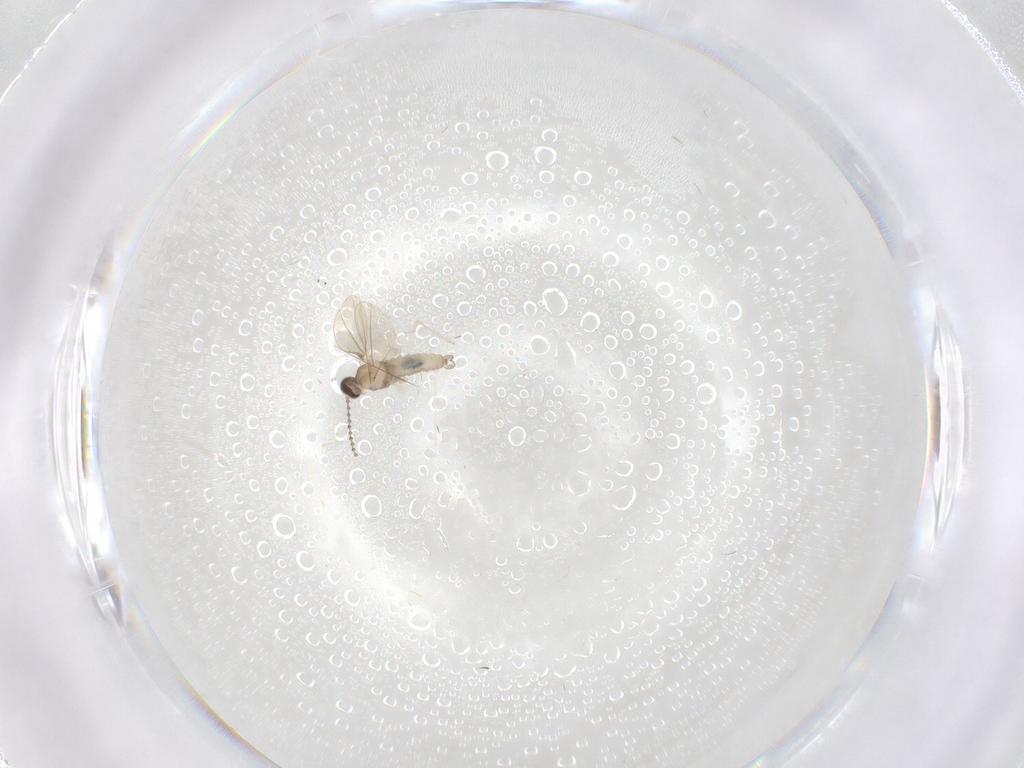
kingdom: Animalia
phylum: Arthropoda
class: Insecta
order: Diptera
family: Cecidomyiidae
